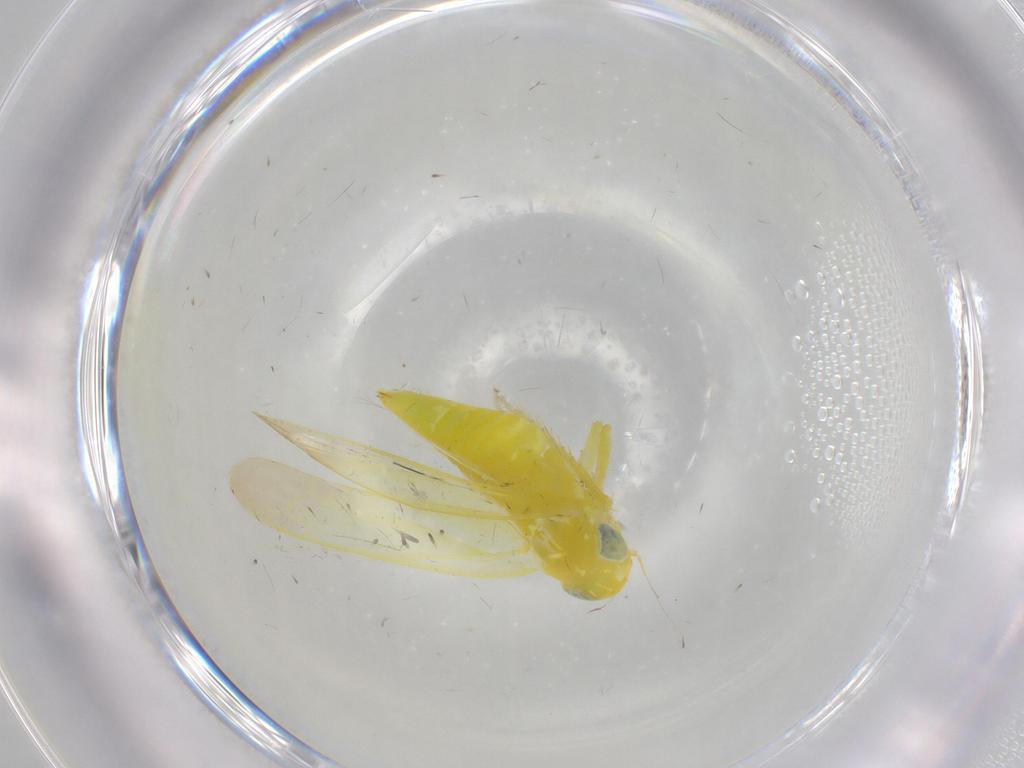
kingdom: Animalia
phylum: Arthropoda
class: Insecta
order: Hemiptera
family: Cicadellidae
